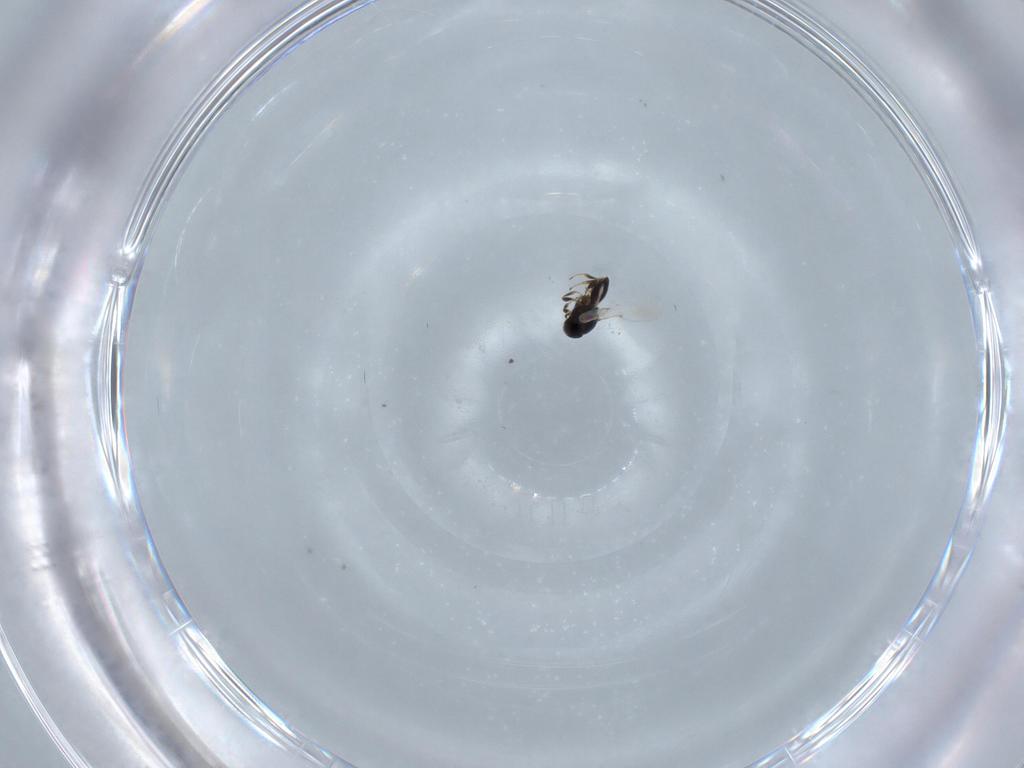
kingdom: Animalia
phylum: Arthropoda
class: Insecta
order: Hymenoptera
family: Platygastridae
